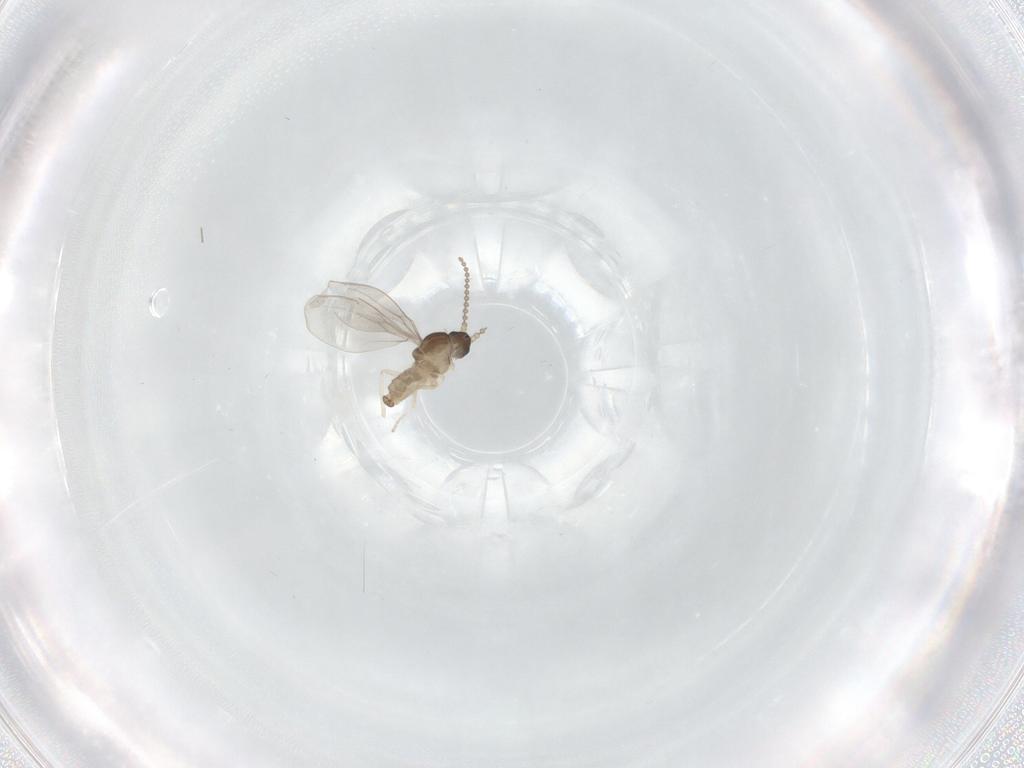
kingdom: Animalia
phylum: Arthropoda
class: Insecta
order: Diptera
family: Cecidomyiidae
